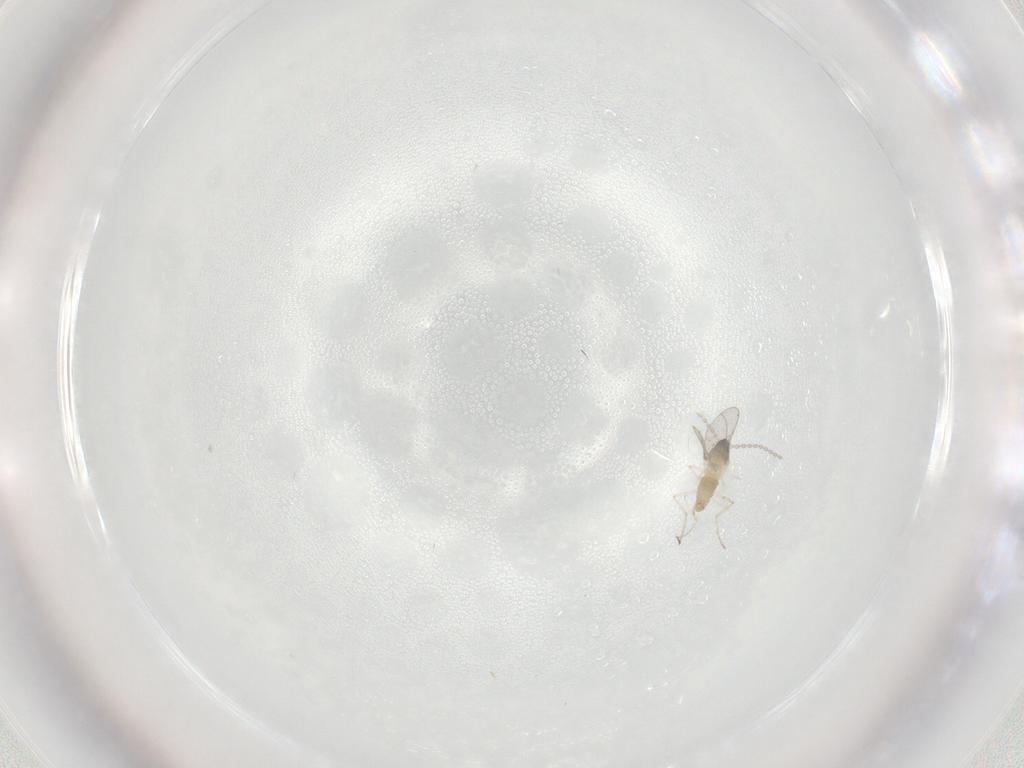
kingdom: Animalia
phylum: Arthropoda
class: Insecta
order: Diptera
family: Cecidomyiidae
